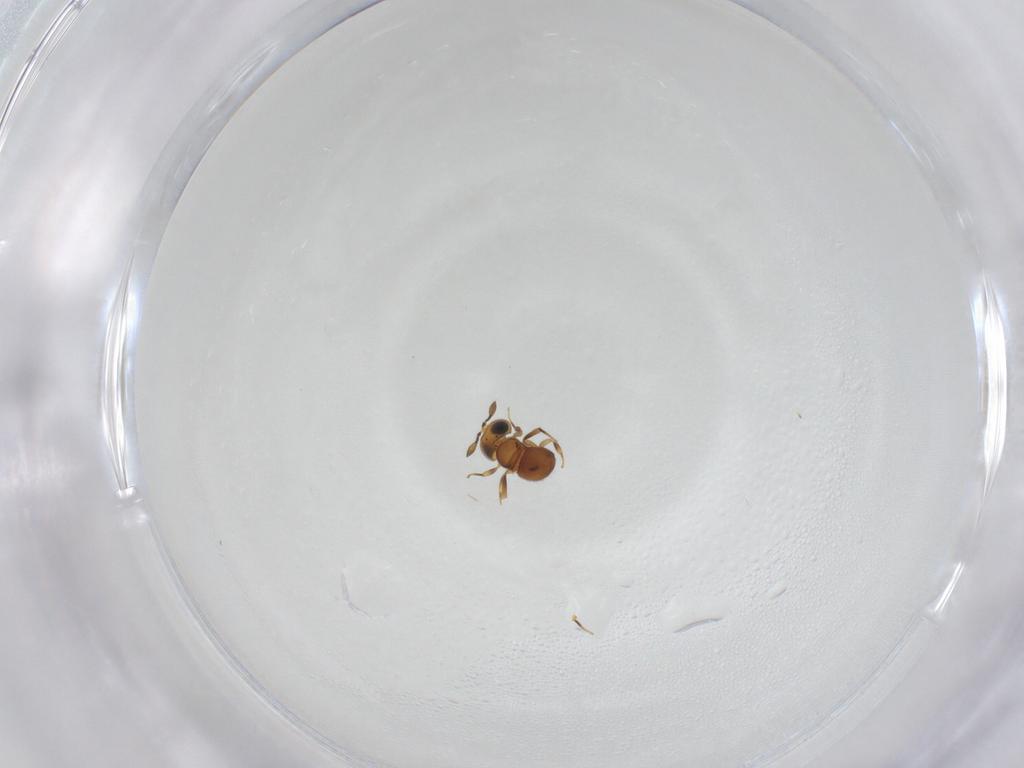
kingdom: Animalia
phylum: Arthropoda
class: Insecta
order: Hymenoptera
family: Scelionidae
